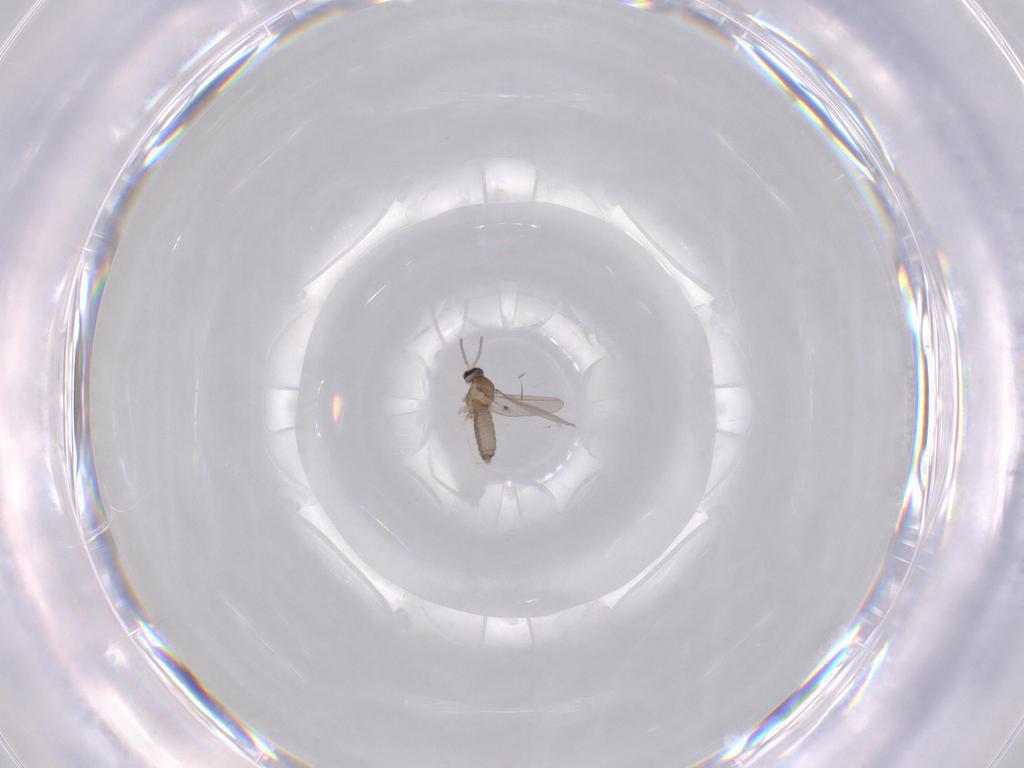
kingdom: Animalia
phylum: Arthropoda
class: Insecta
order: Diptera
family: Cecidomyiidae
